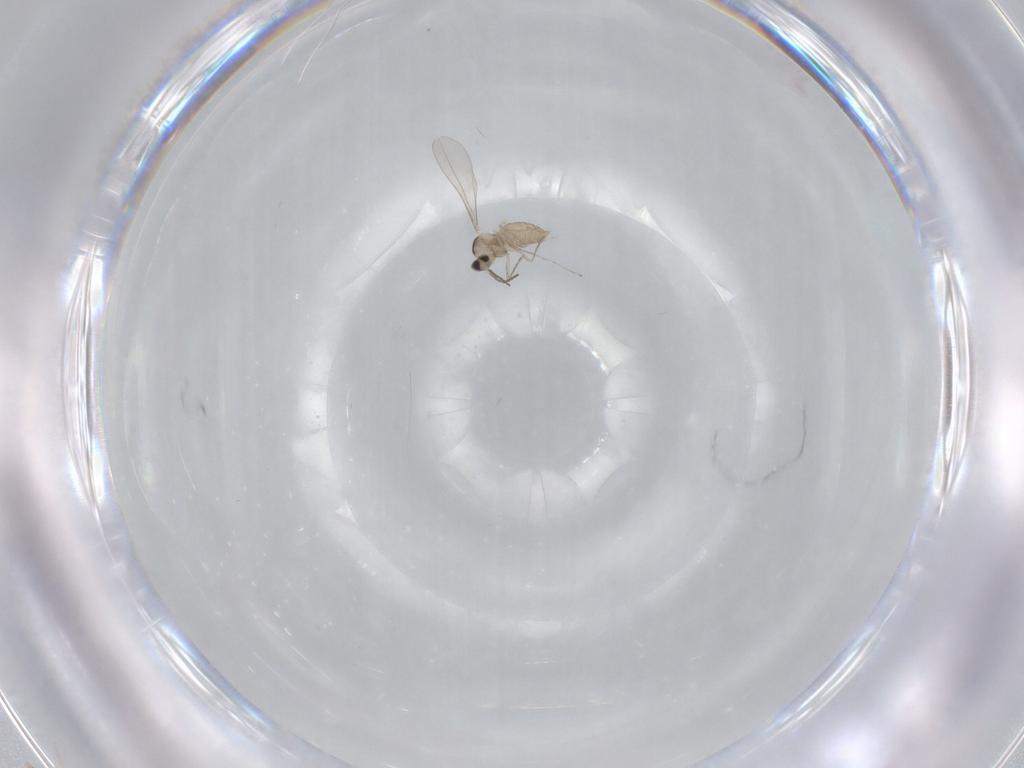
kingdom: Animalia
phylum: Arthropoda
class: Insecta
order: Diptera
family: Cecidomyiidae
